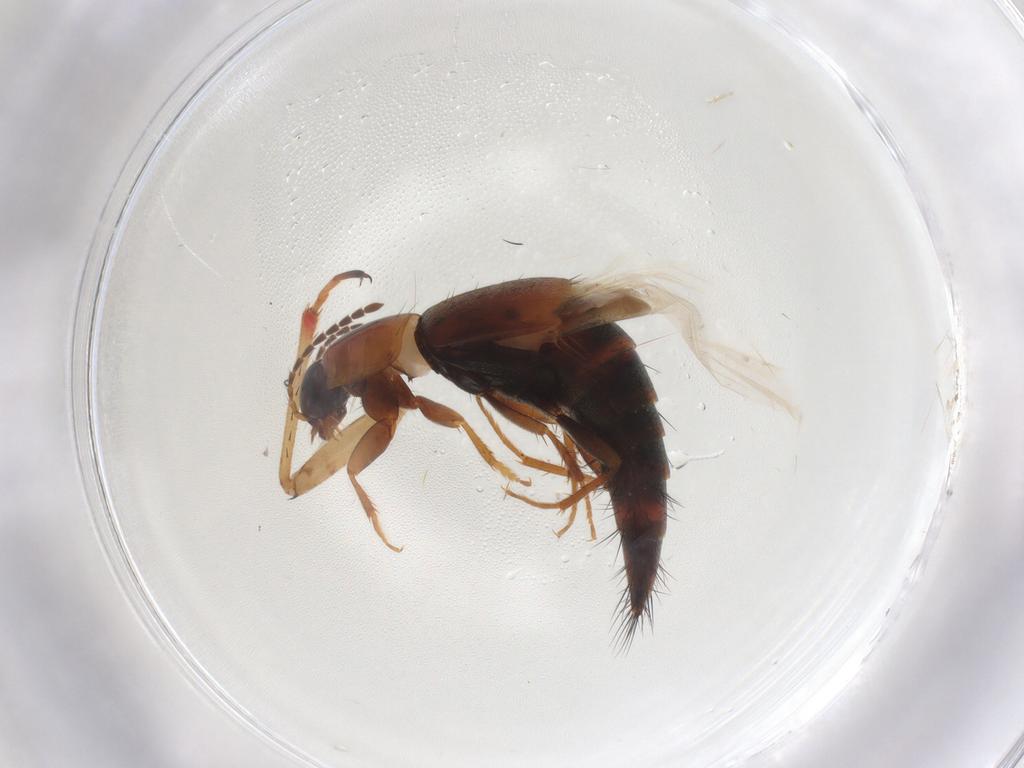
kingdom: Animalia
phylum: Arthropoda
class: Insecta
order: Coleoptera
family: Staphylinidae
